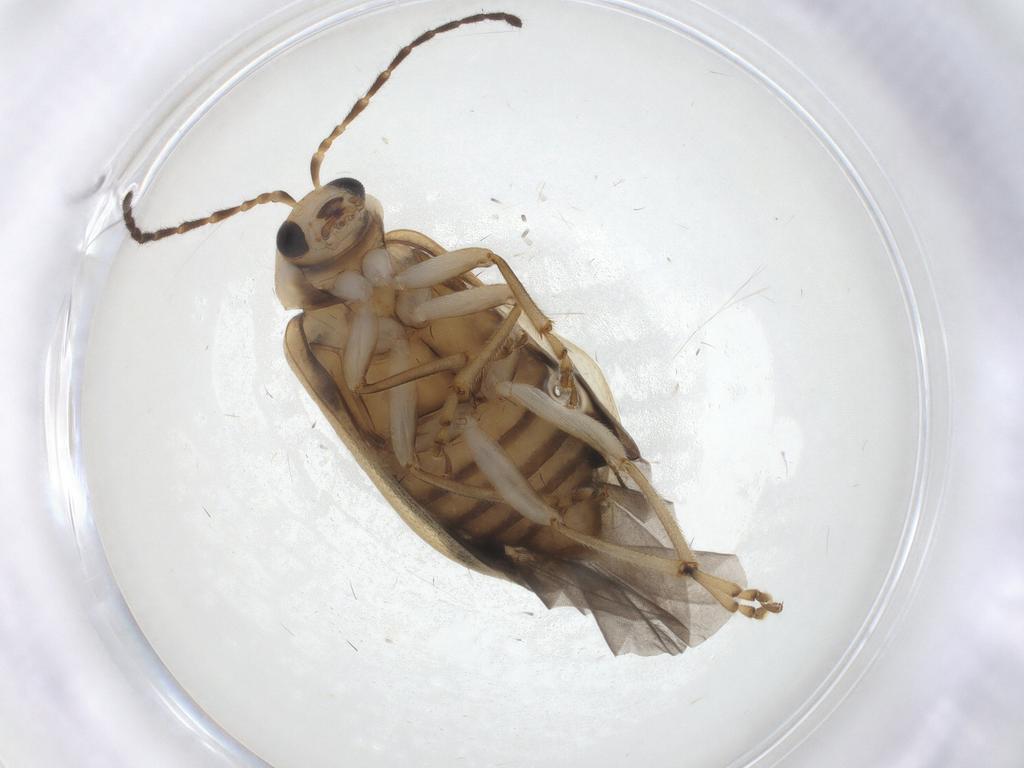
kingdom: Animalia
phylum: Arthropoda
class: Insecta
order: Coleoptera
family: Chrysomelidae
